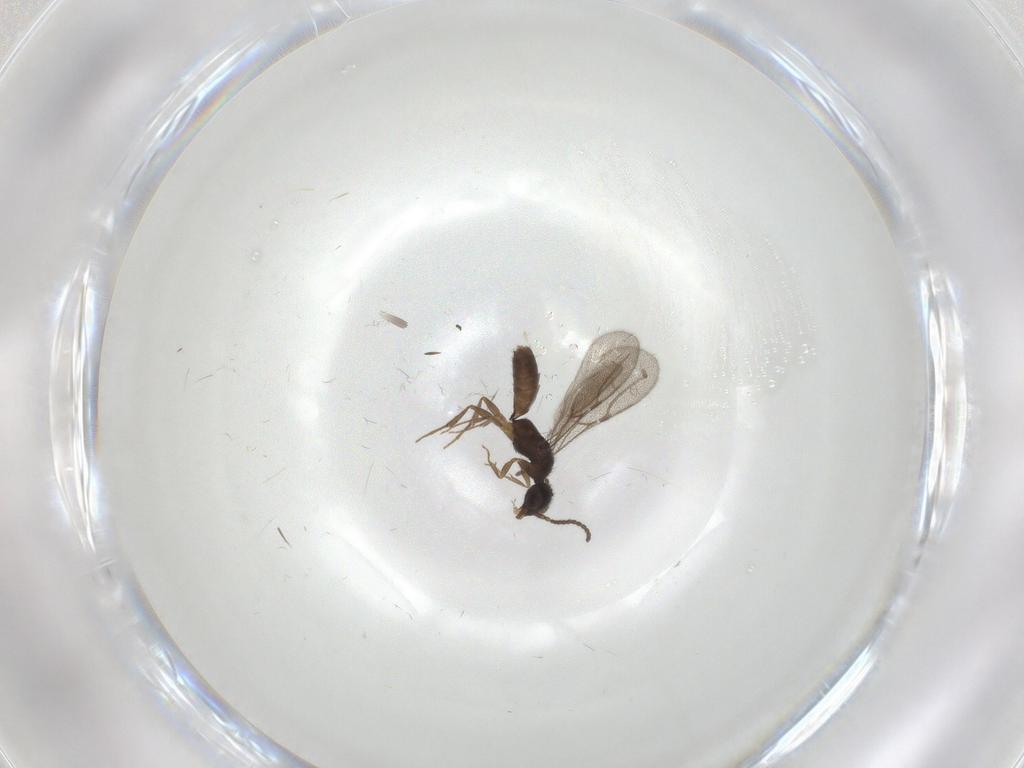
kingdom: Animalia
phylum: Arthropoda
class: Insecta
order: Hymenoptera
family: Bethylidae
